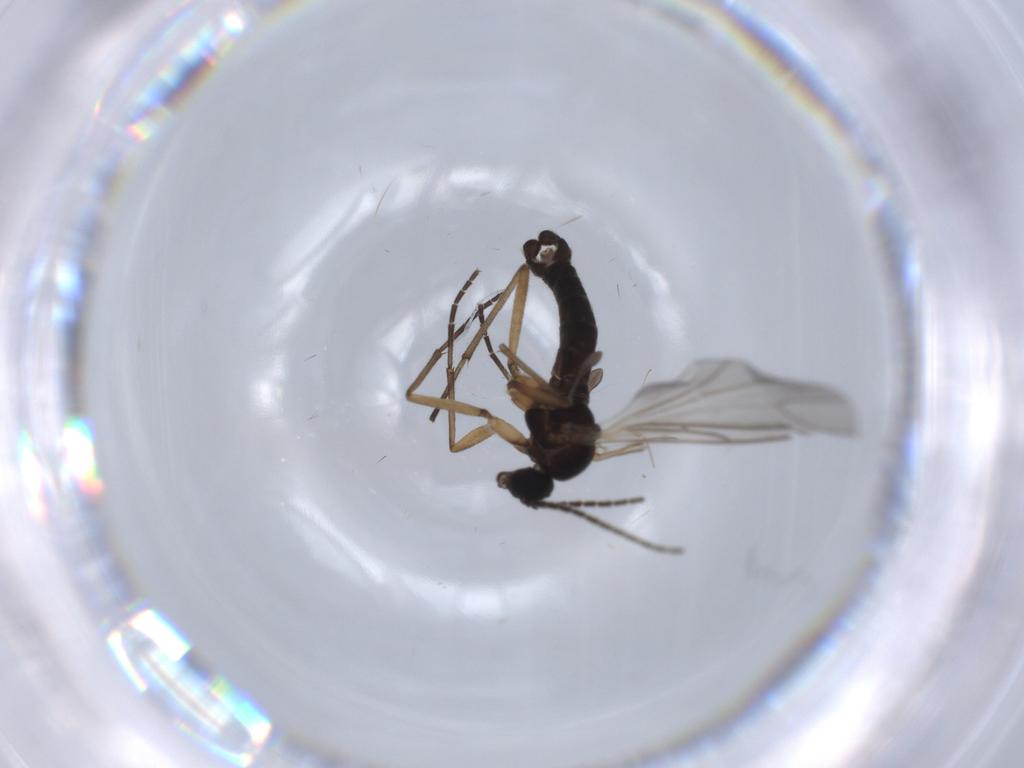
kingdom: Animalia
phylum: Arthropoda
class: Insecta
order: Diptera
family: Sciaridae
